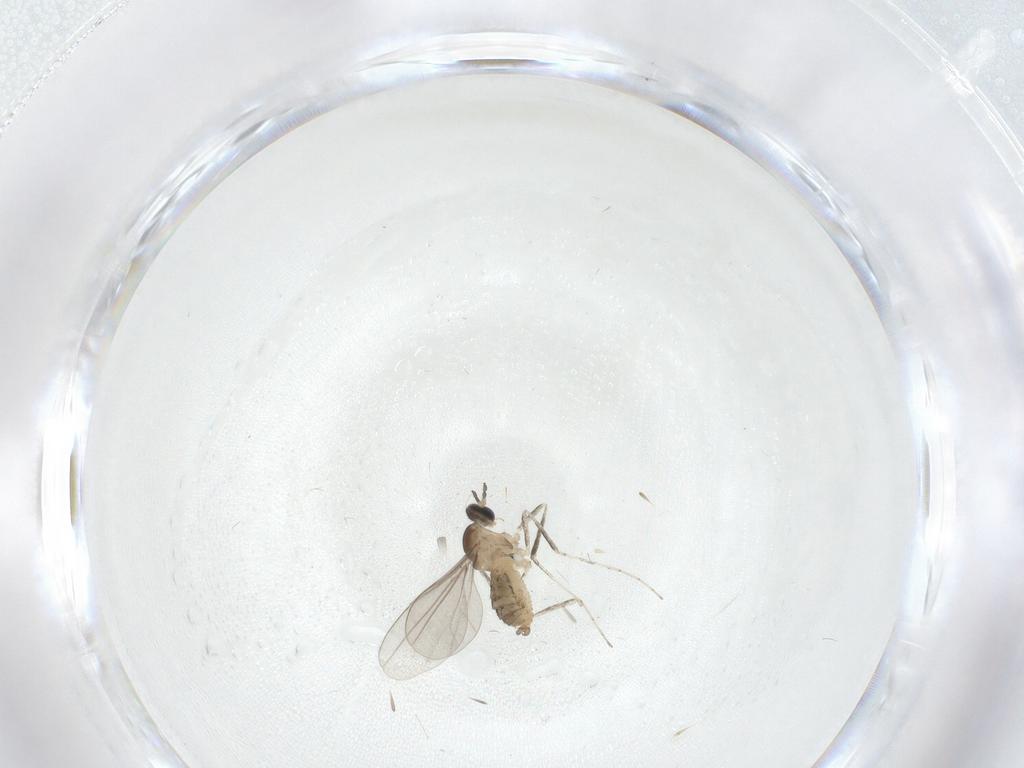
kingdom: Animalia
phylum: Arthropoda
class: Insecta
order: Diptera
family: Cecidomyiidae
